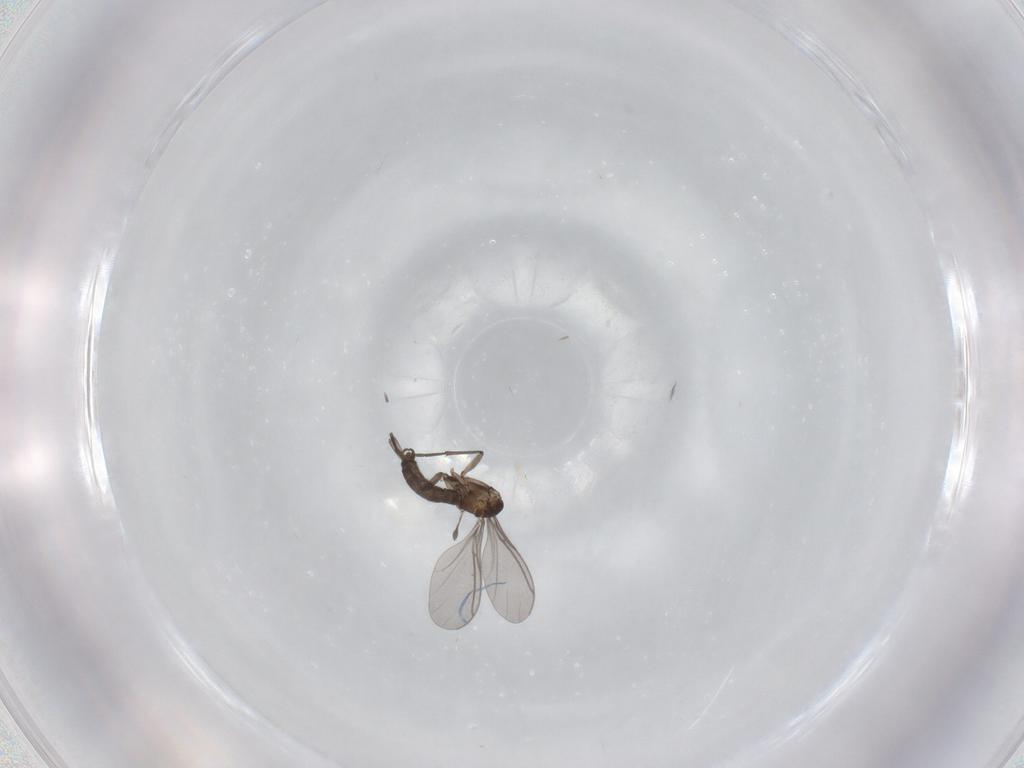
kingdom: Animalia
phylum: Arthropoda
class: Insecta
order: Diptera
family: Sciaridae
